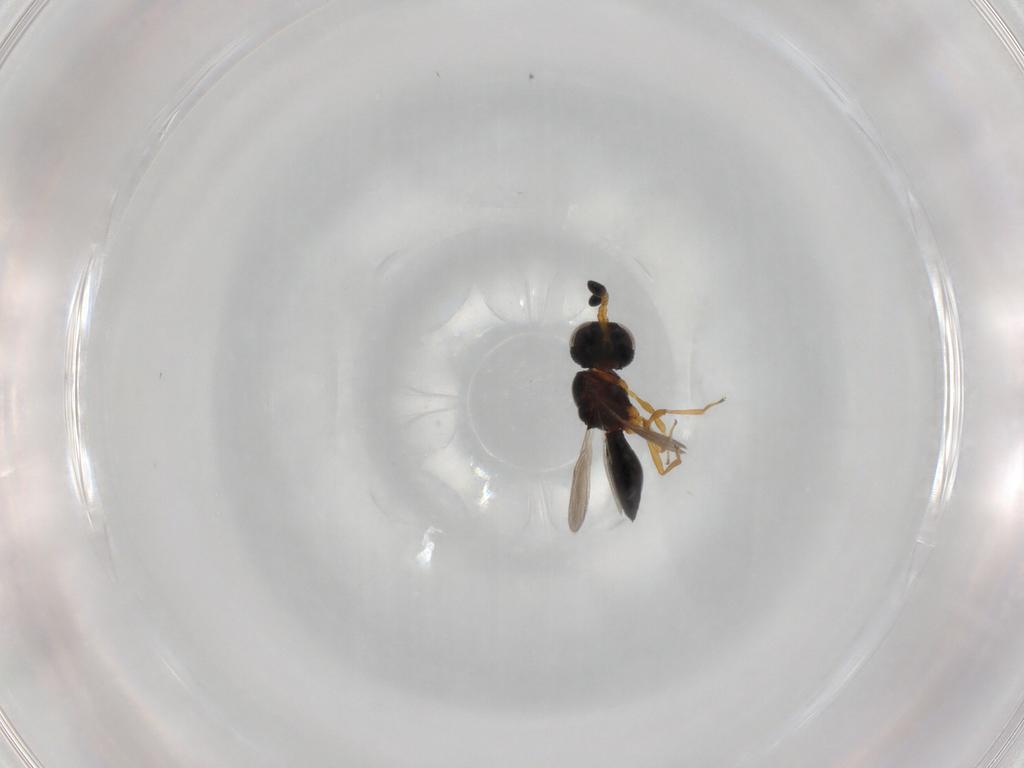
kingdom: Animalia
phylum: Arthropoda
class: Insecta
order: Hymenoptera
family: Scelionidae
